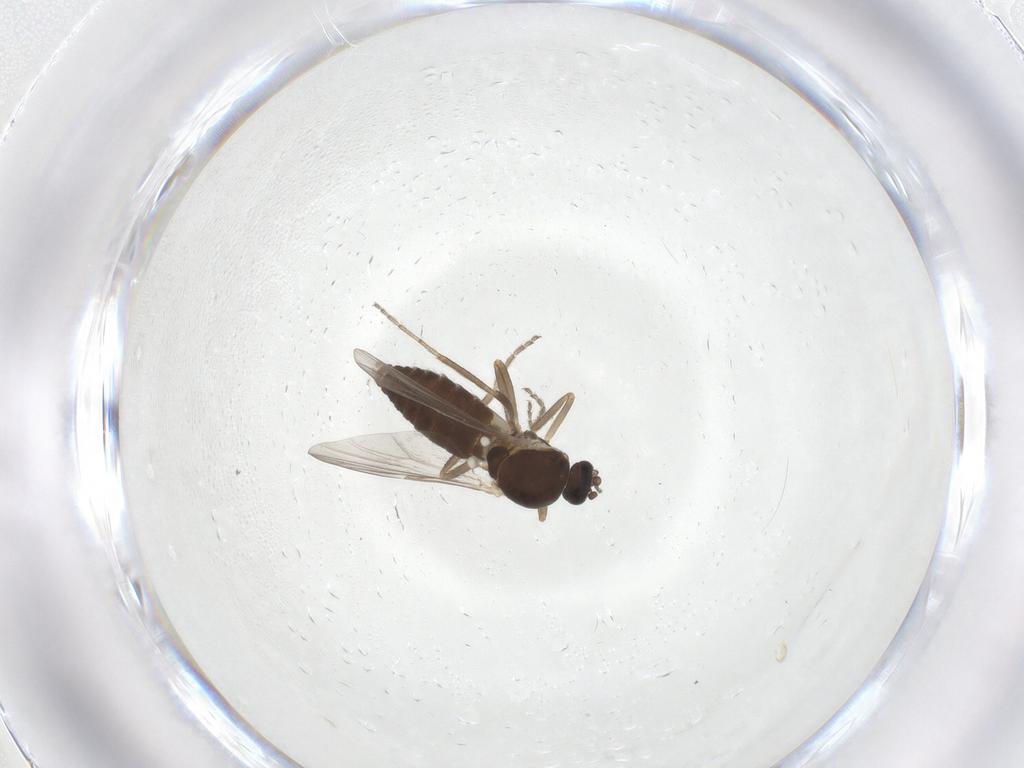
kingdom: Animalia
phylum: Arthropoda
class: Insecta
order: Diptera
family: Ceratopogonidae
